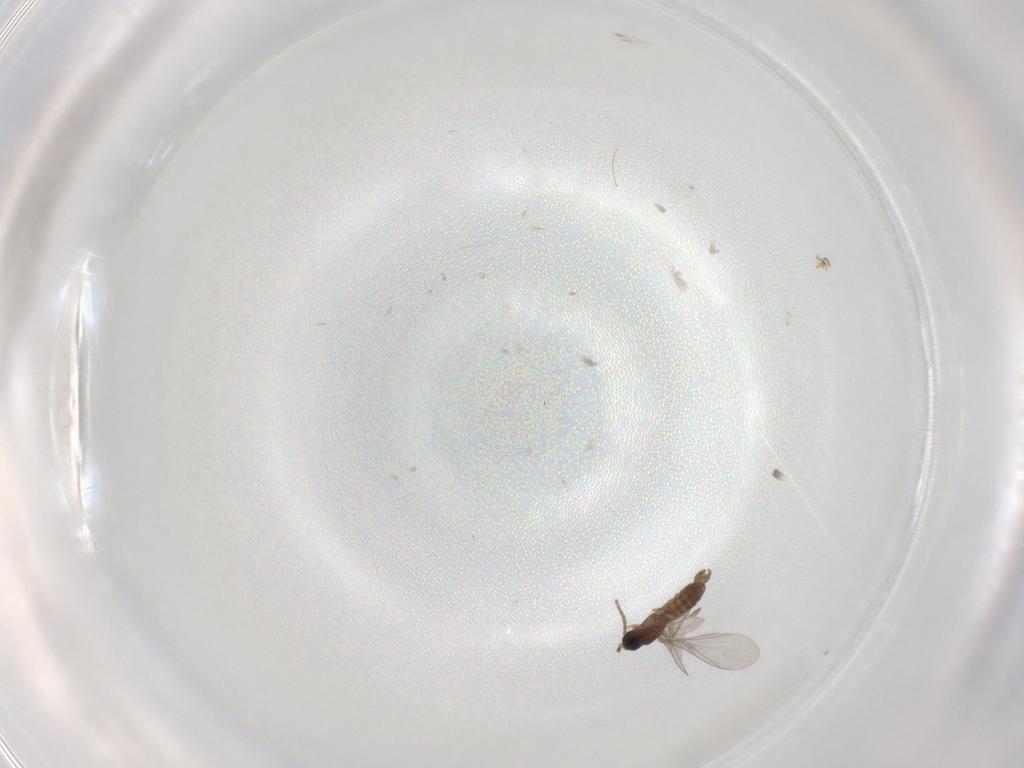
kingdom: Animalia
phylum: Arthropoda
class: Insecta
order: Diptera
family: Sciaridae
